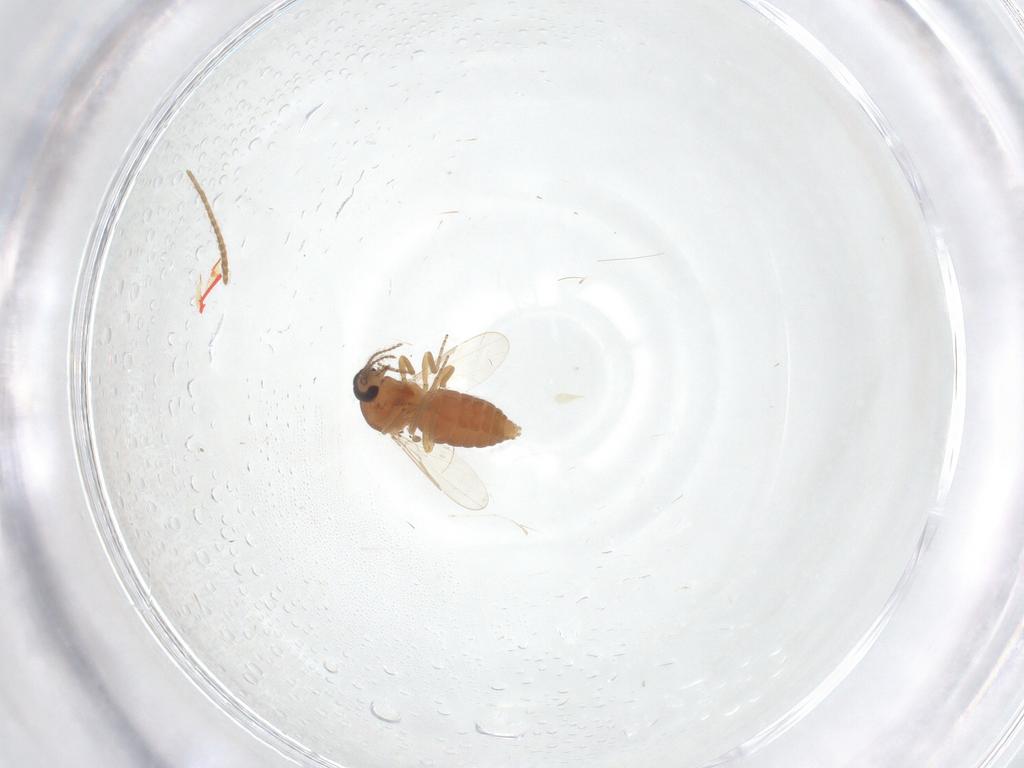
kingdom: Animalia
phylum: Arthropoda
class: Insecta
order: Diptera
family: Ceratopogonidae
